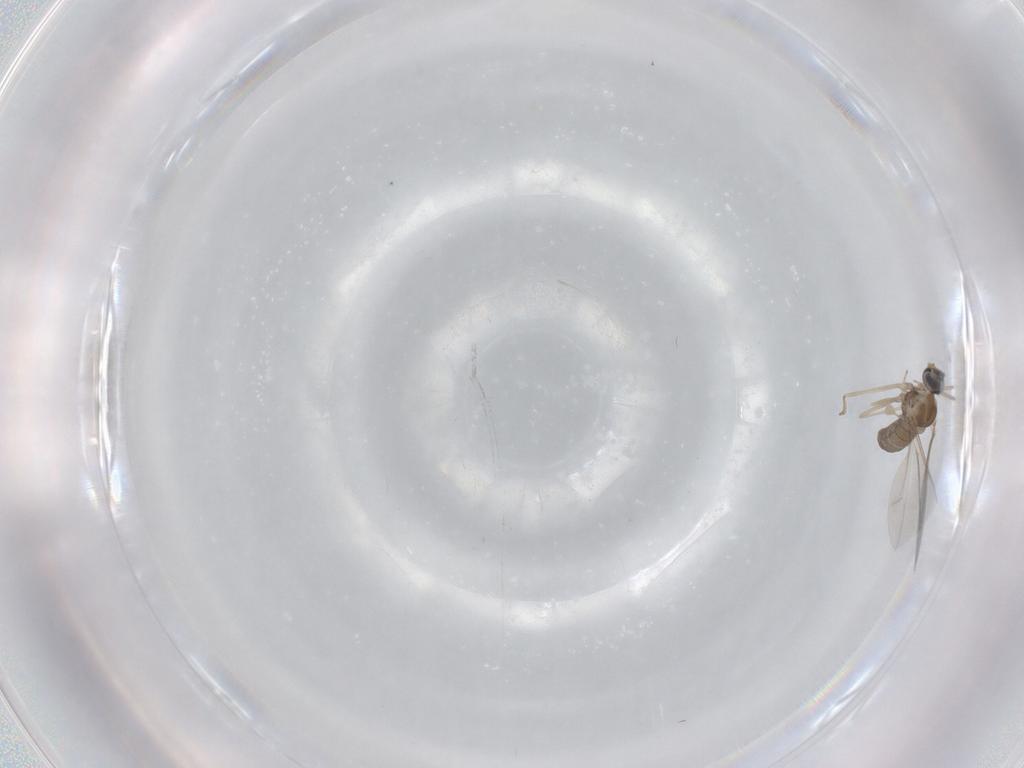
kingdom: Animalia
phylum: Arthropoda
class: Insecta
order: Diptera
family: Cecidomyiidae
